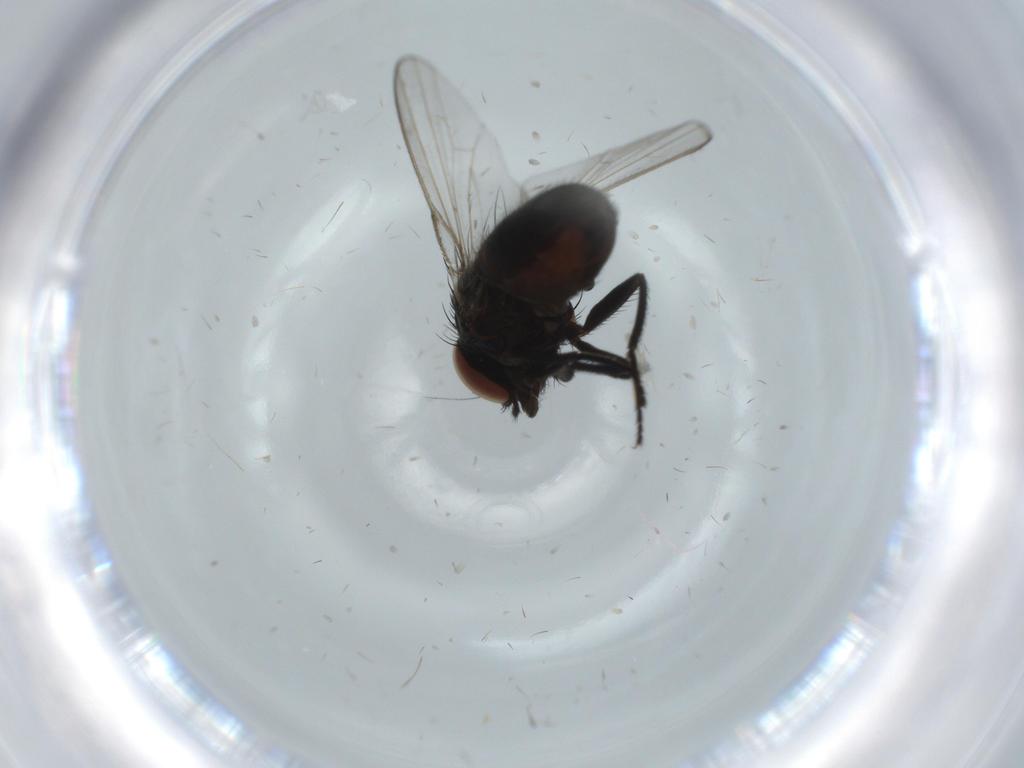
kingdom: Animalia
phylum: Arthropoda
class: Insecta
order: Diptera
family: Milichiidae
